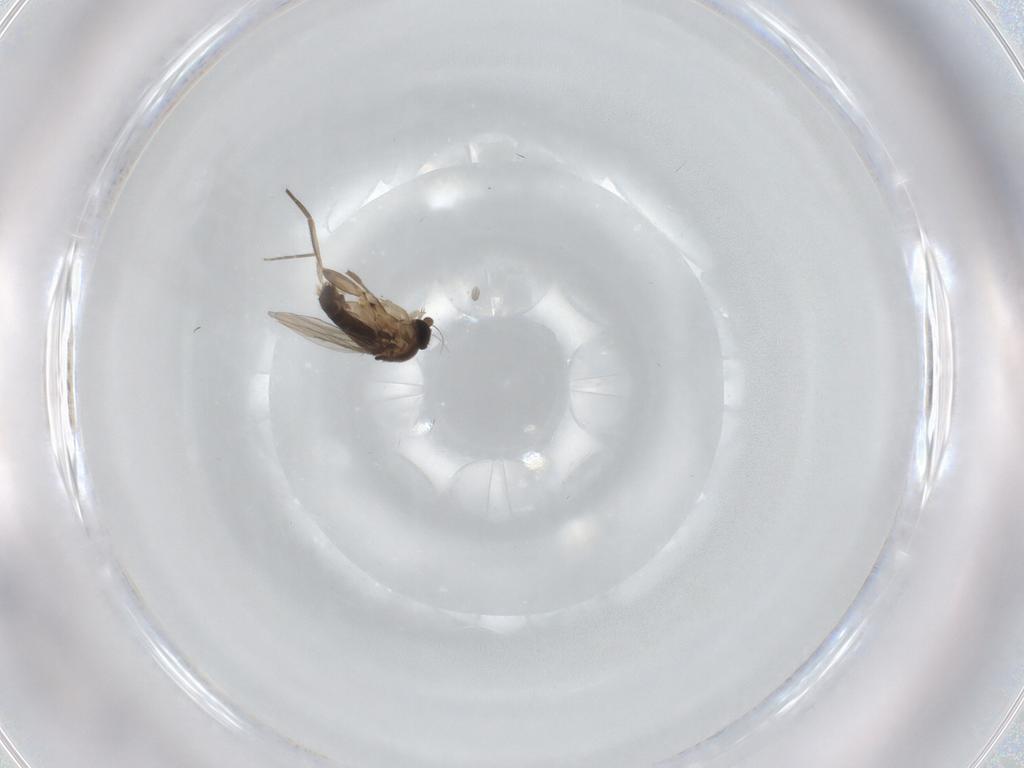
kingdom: Animalia
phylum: Arthropoda
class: Insecta
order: Diptera
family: Phoridae
